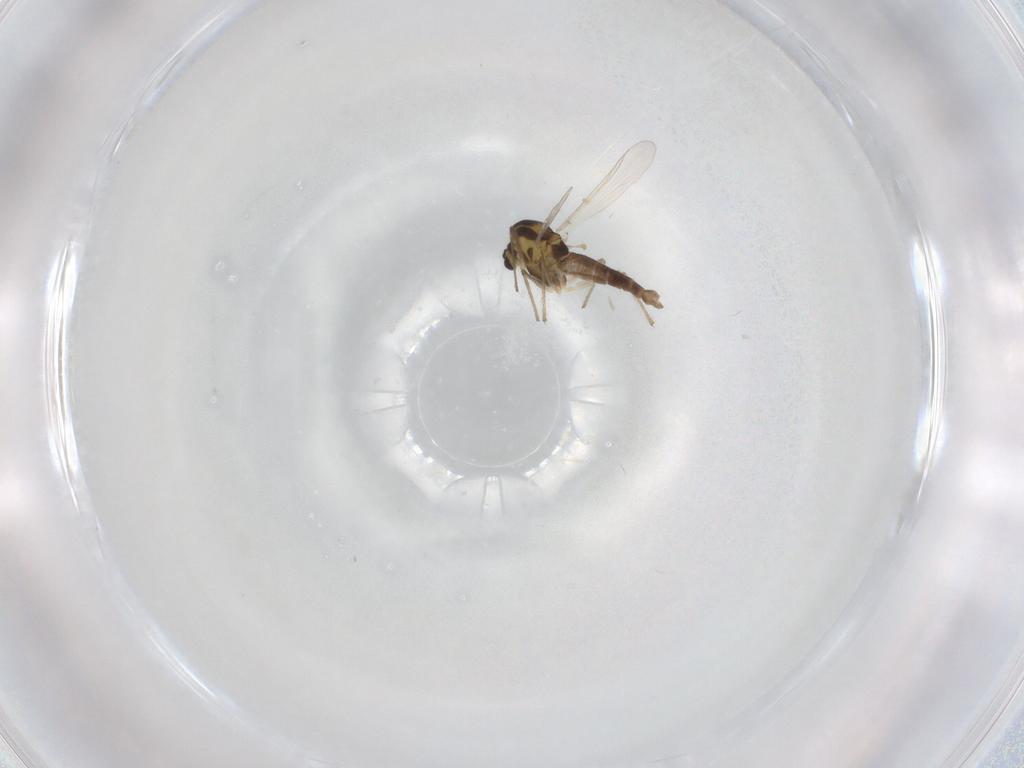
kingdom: Animalia
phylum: Arthropoda
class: Insecta
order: Diptera
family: Chironomidae
